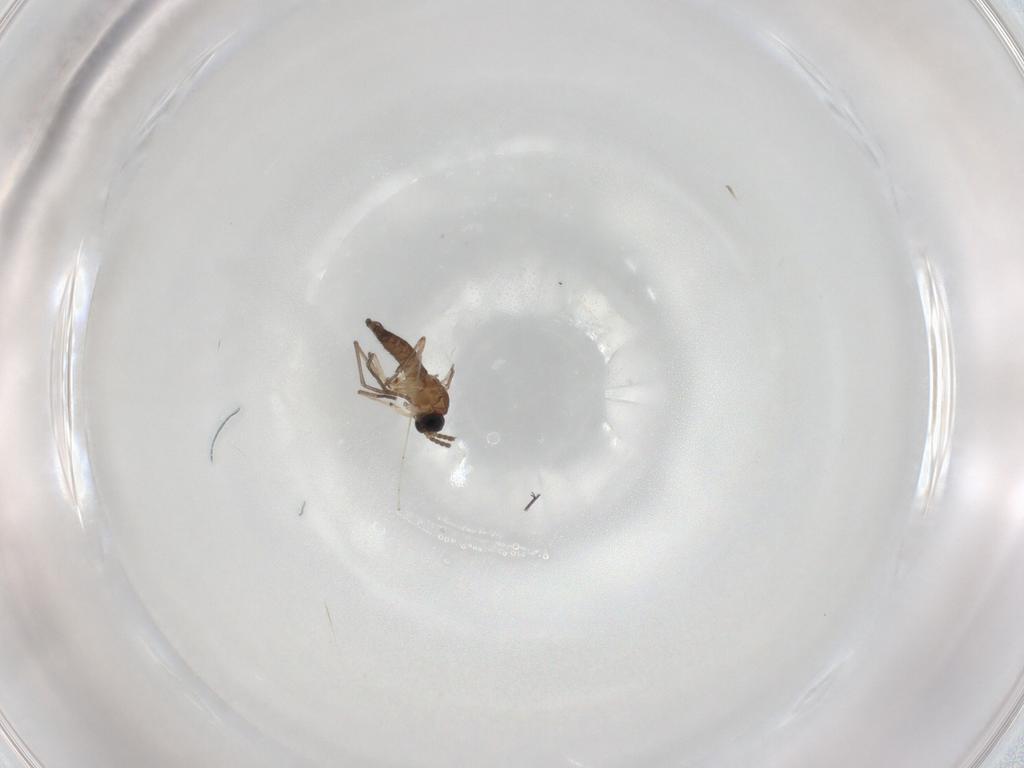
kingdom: Animalia
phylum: Arthropoda
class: Insecta
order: Diptera
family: Sciaridae
